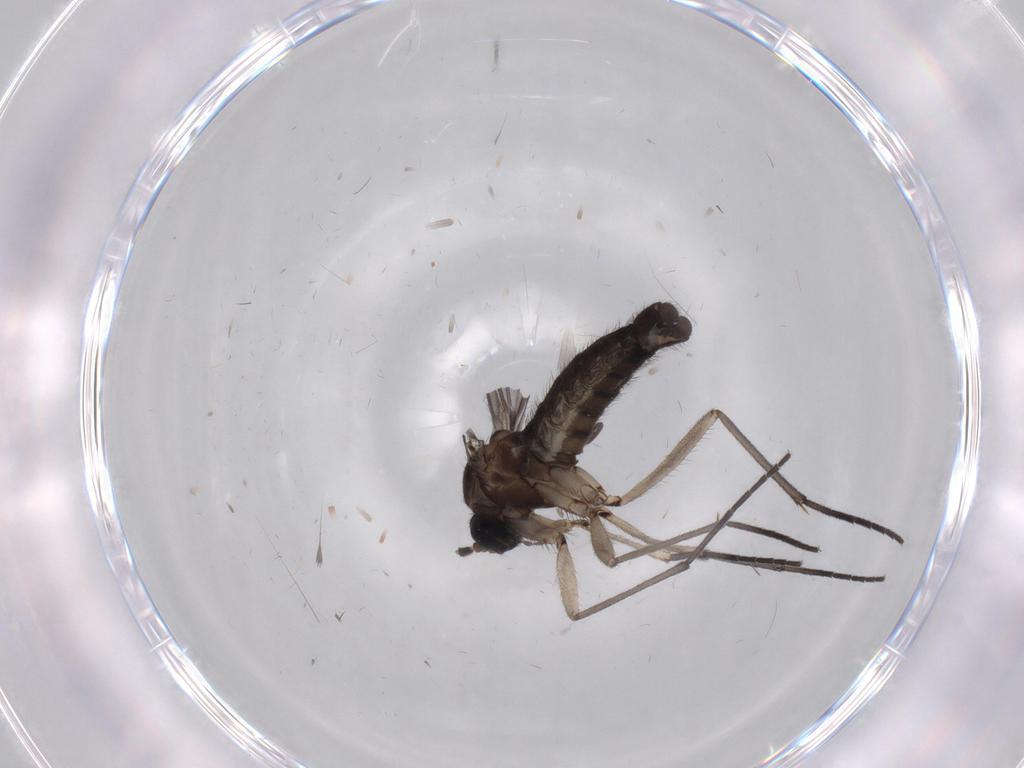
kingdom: Animalia
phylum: Arthropoda
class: Insecta
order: Diptera
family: Sciaridae
